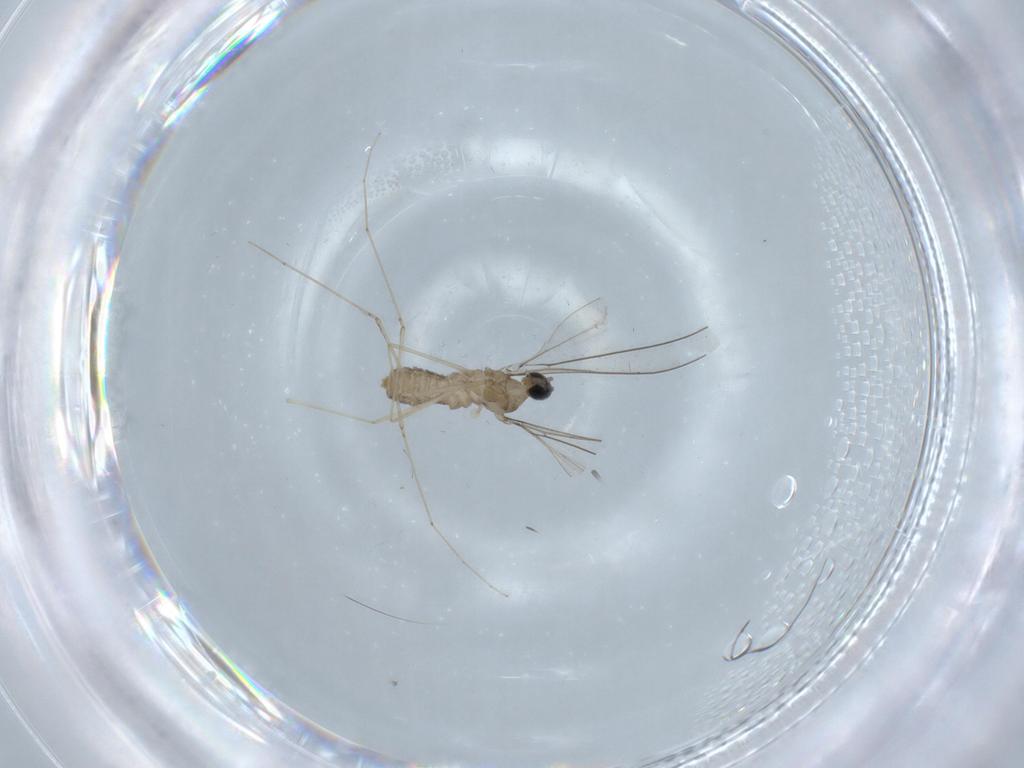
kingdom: Animalia
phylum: Arthropoda
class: Insecta
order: Diptera
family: Cecidomyiidae
